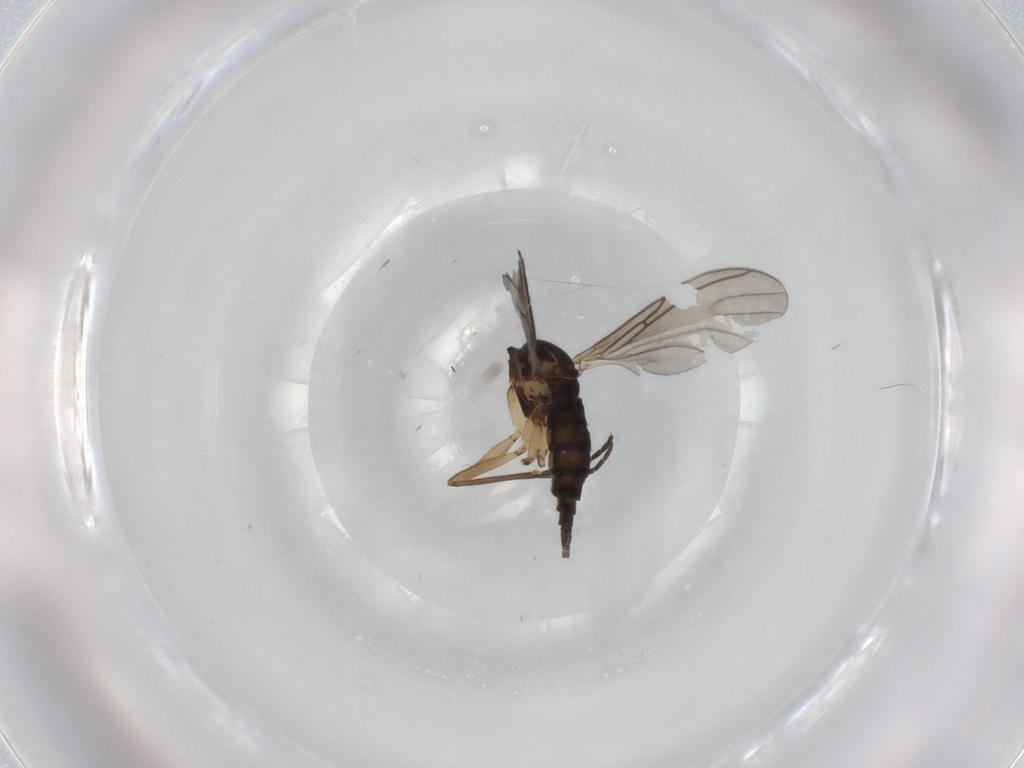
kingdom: Animalia
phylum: Arthropoda
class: Insecta
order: Diptera
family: Sciaridae
